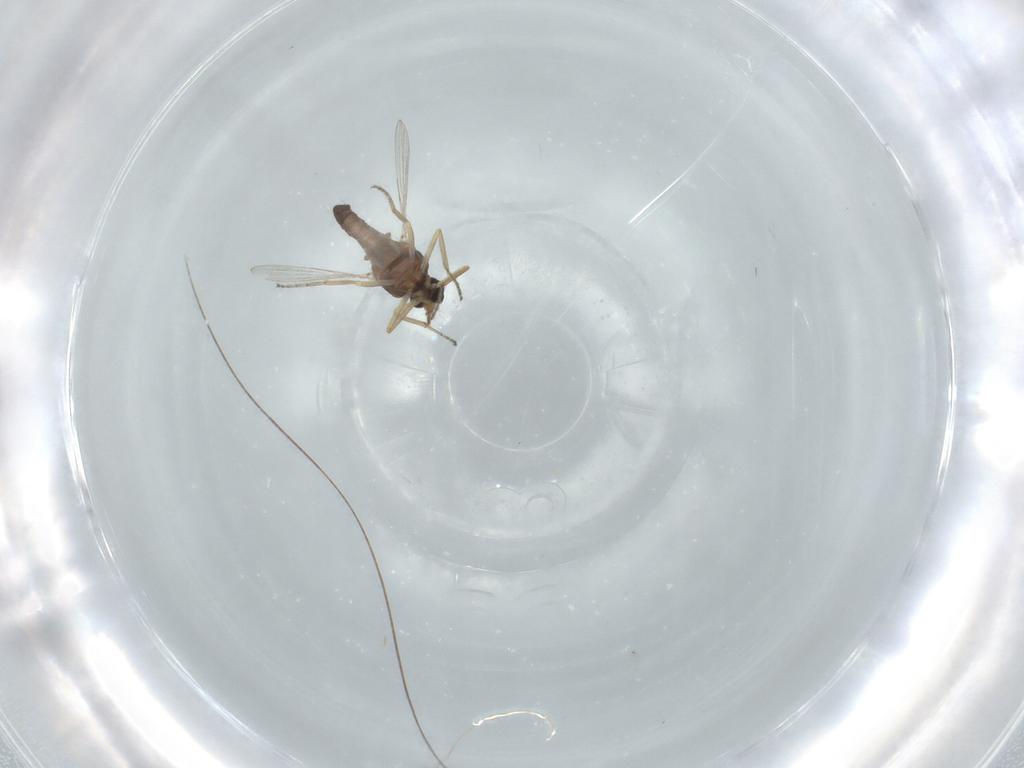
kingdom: Animalia
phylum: Arthropoda
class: Insecta
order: Diptera
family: Ceratopogonidae
